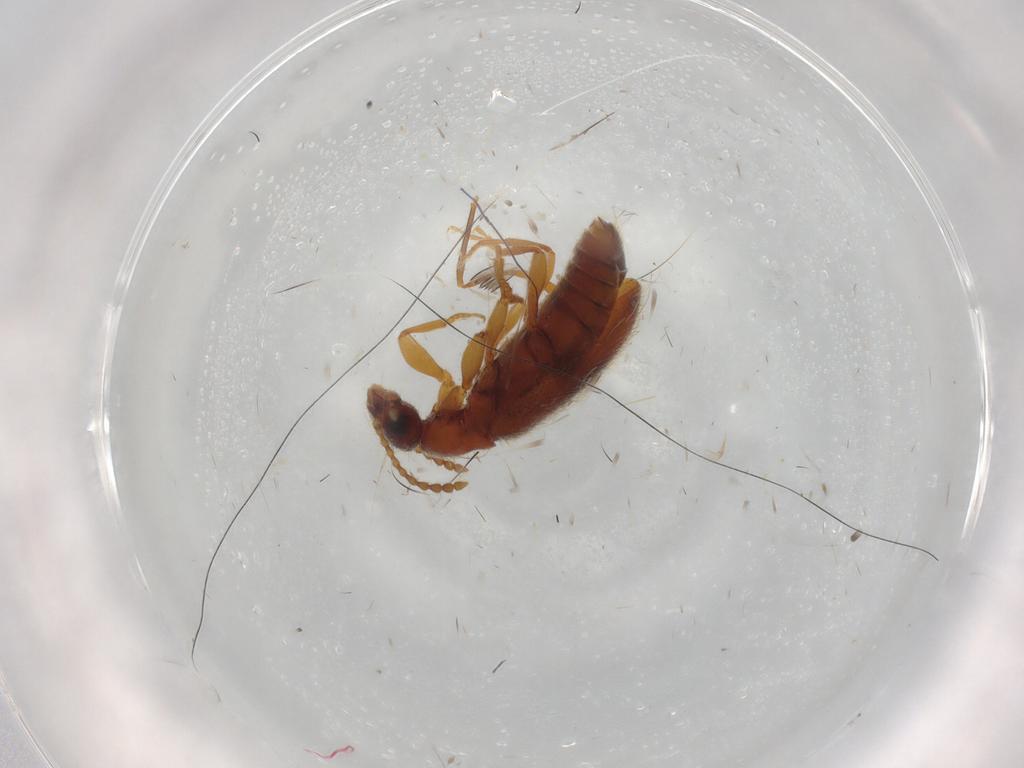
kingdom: Animalia
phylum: Arthropoda
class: Insecta
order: Coleoptera
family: Anthicidae
